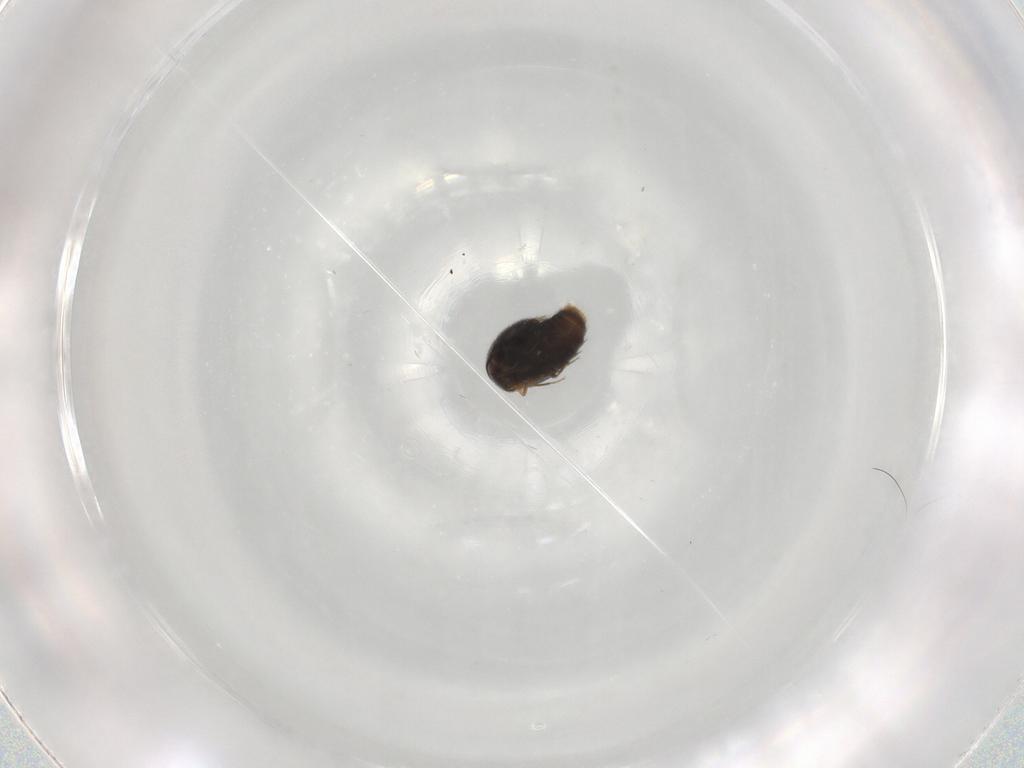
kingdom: Animalia
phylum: Arthropoda
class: Insecta
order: Coleoptera
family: Staphylinidae
